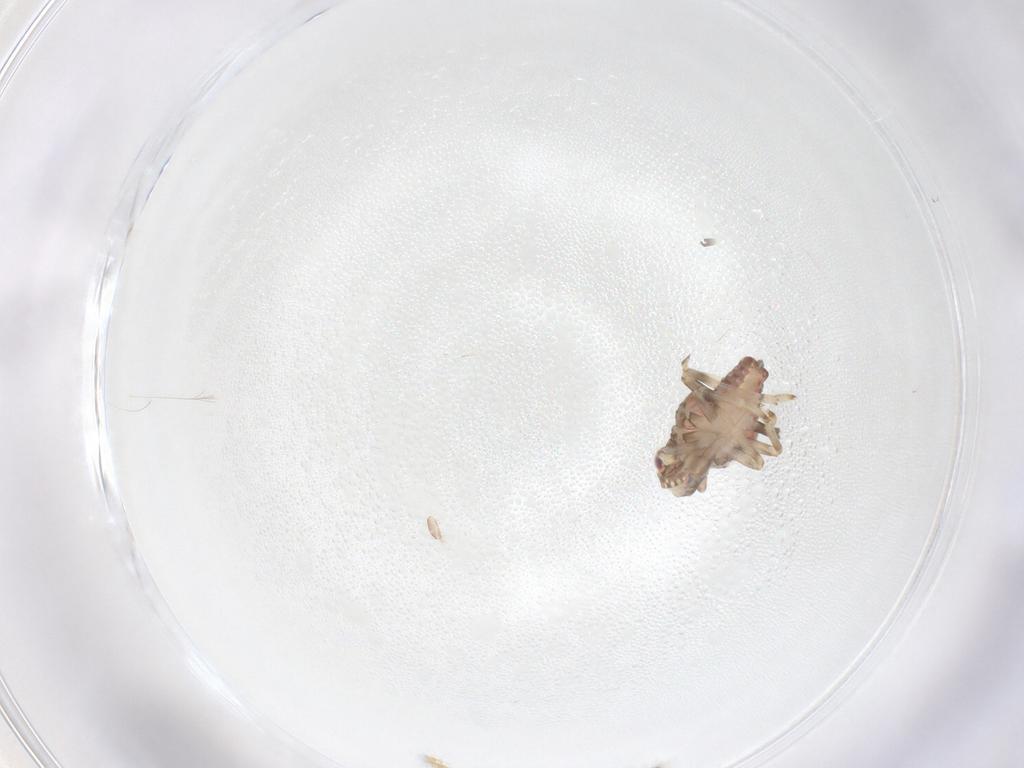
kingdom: Animalia
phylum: Arthropoda
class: Insecta
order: Hemiptera
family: Tropiduchidae
